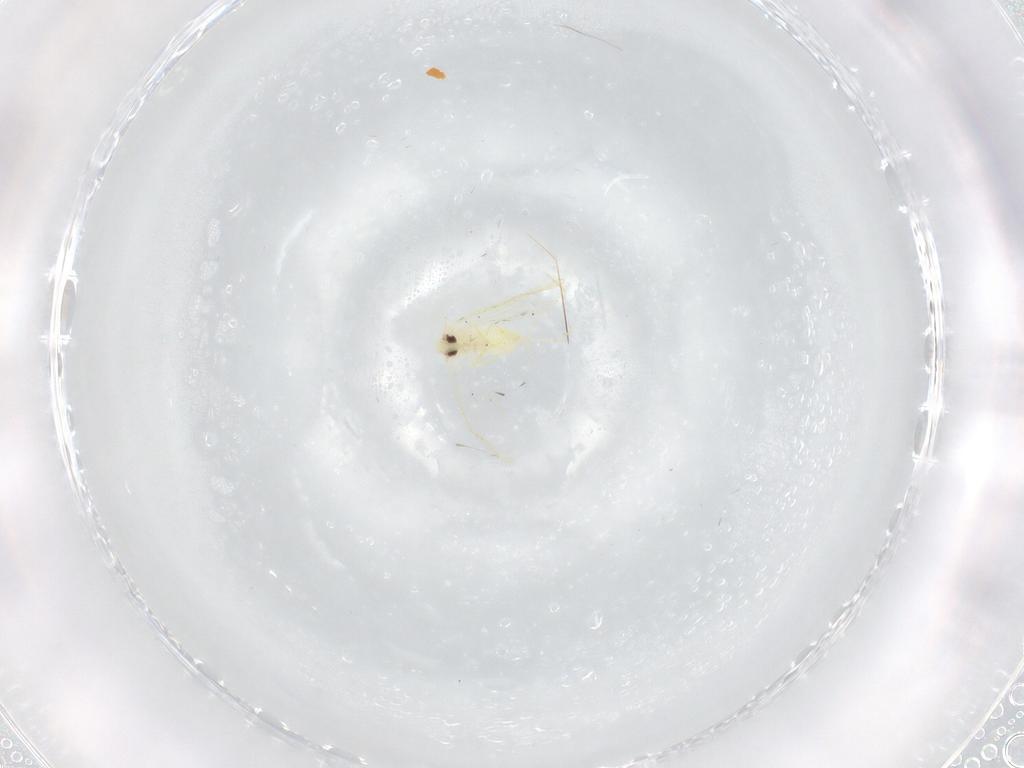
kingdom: Animalia
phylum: Arthropoda
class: Insecta
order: Hemiptera
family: Aleyrodidae
